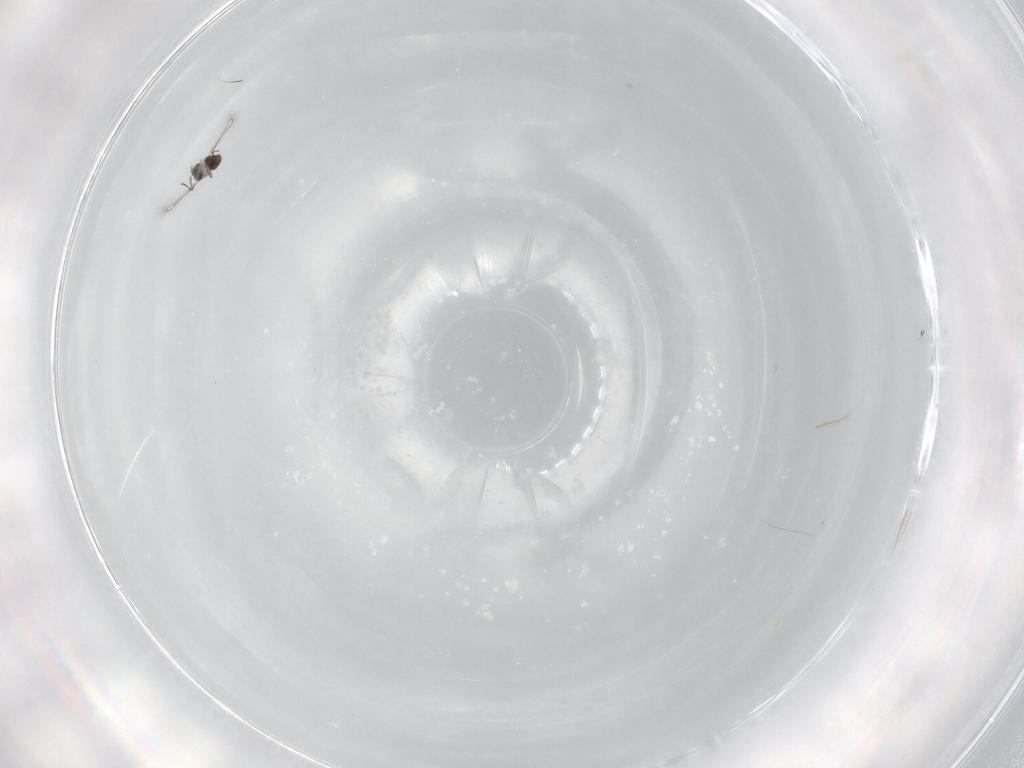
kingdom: Animalia
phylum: Arthropoda
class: Insecta
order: Hymenoptera
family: Mymaridae
